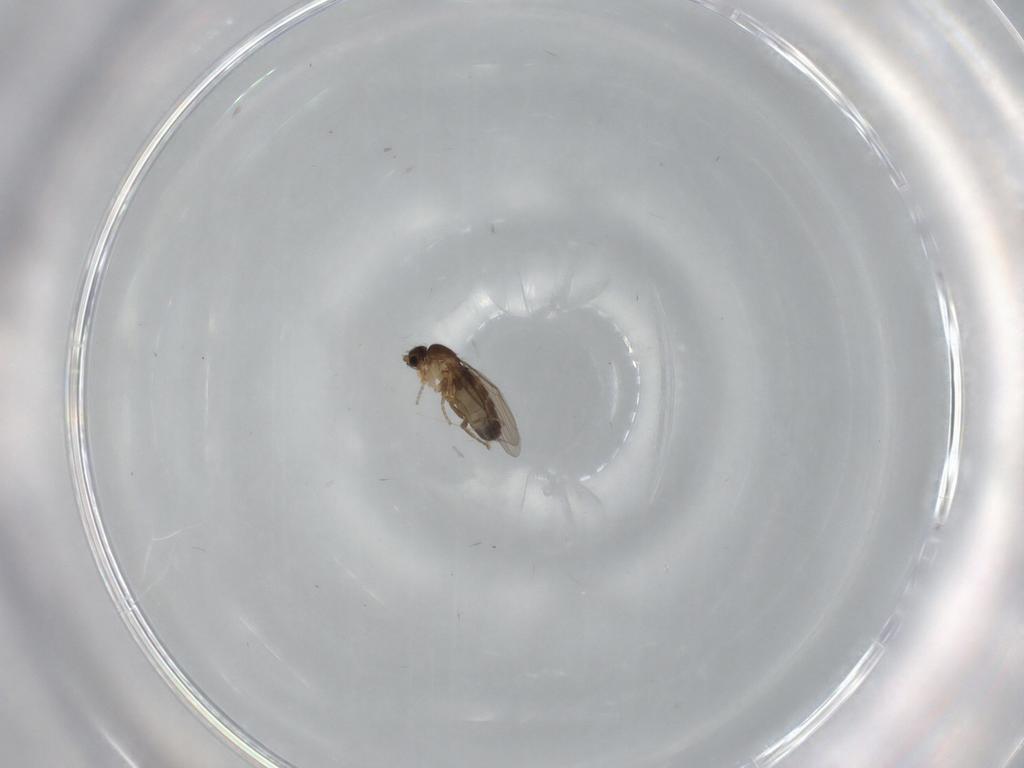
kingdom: Animalia
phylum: Arthropoda
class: Insecta
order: Diptera
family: Phoridae
